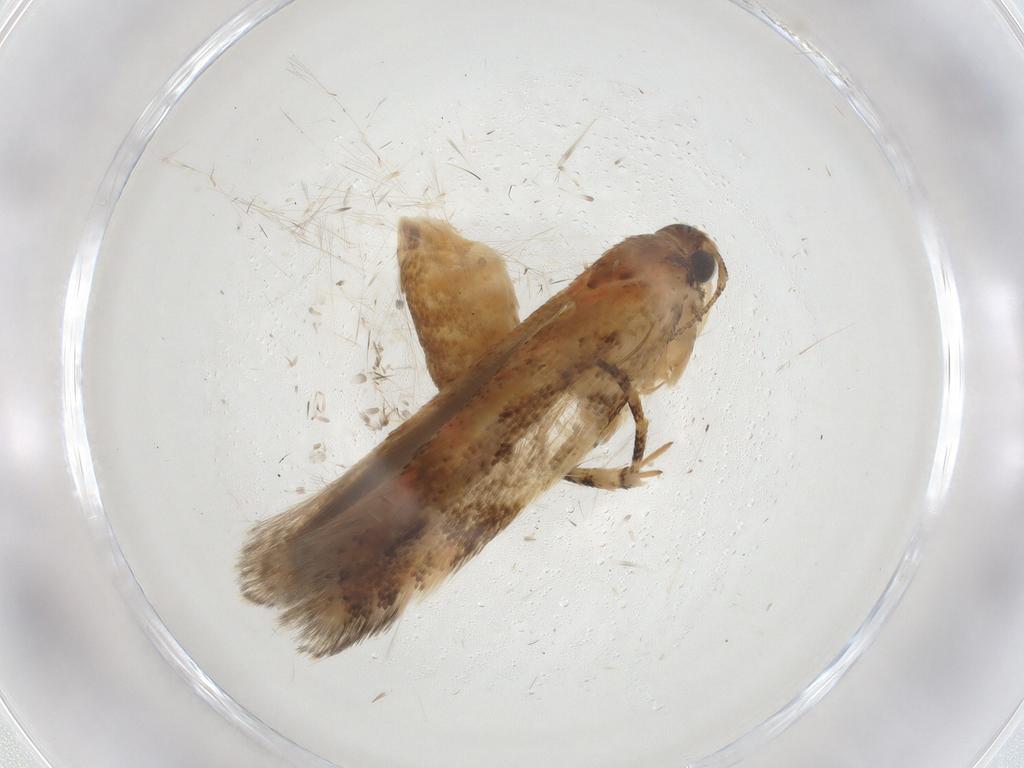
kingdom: Animalia
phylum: Arthropoda
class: Insecta
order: Lepidoptera
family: Gelechiidae
